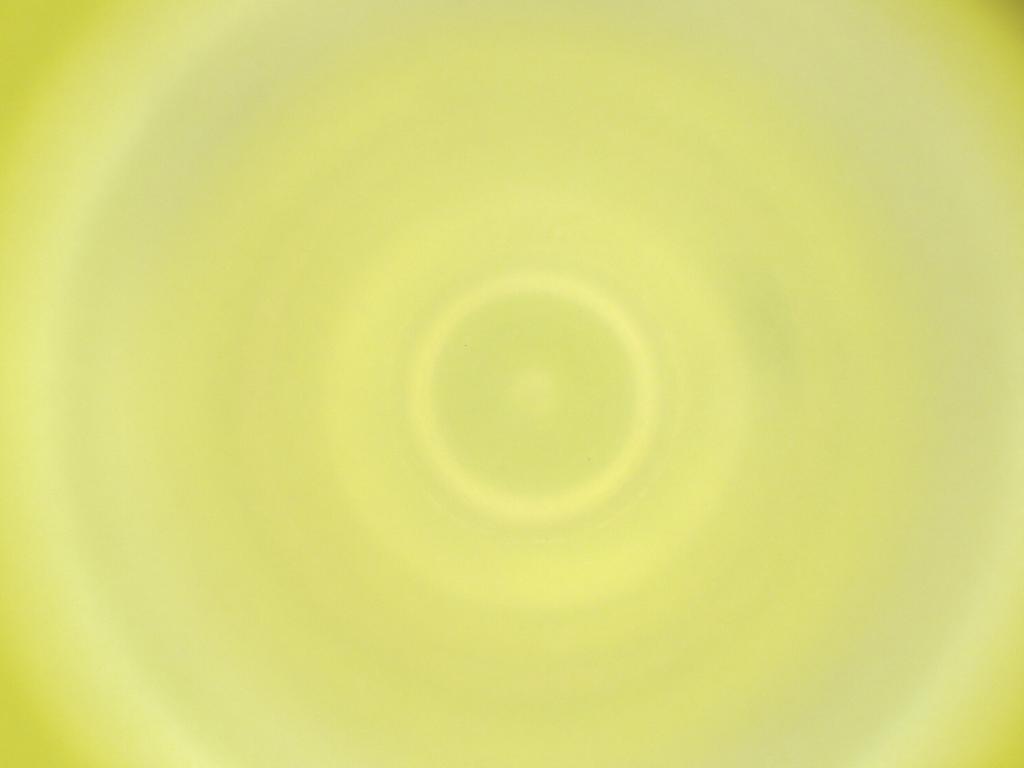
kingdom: Animalia
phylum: Arthropoda
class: Insecta
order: Diptera
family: Cecidomyiidae
